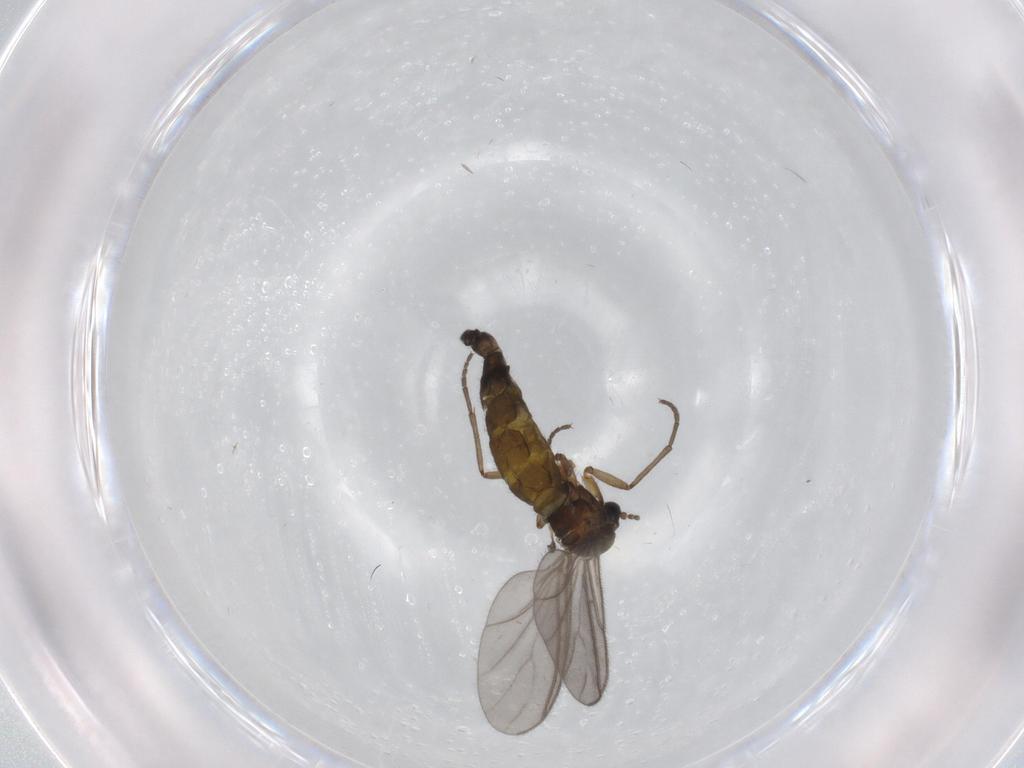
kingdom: Animalia
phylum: Arthropoda
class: Insecta
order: Diptera
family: Sciaridae
